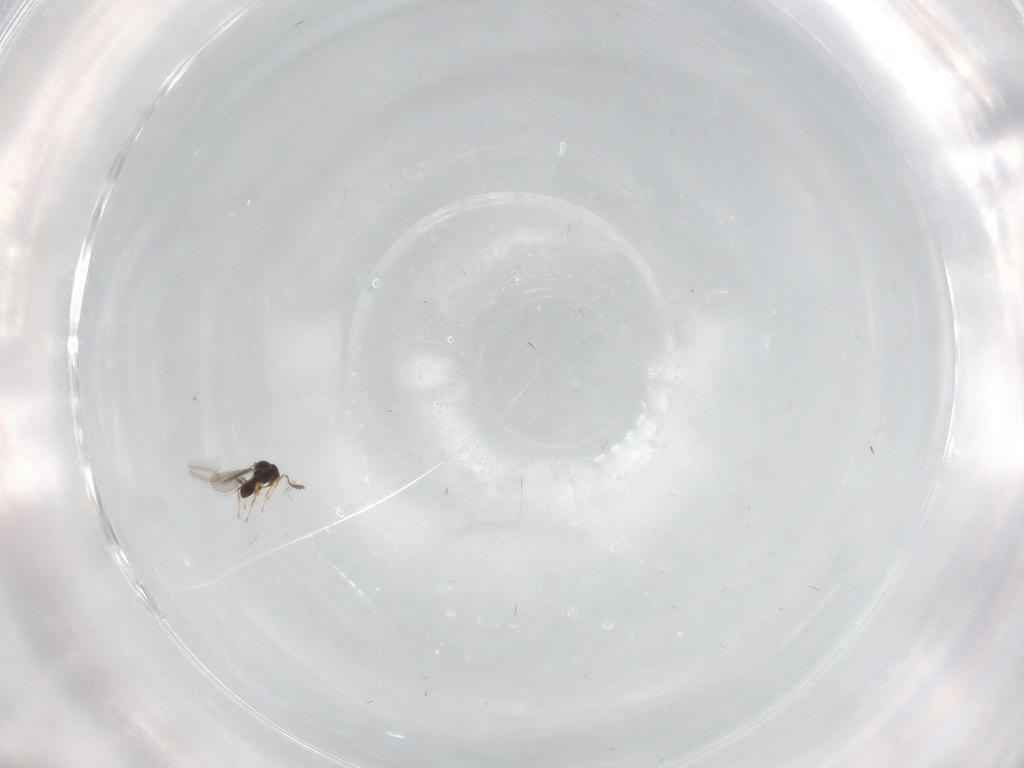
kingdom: Animalia
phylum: Arthropoda
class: Insecta
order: Hymenoptera
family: Platygastridae
